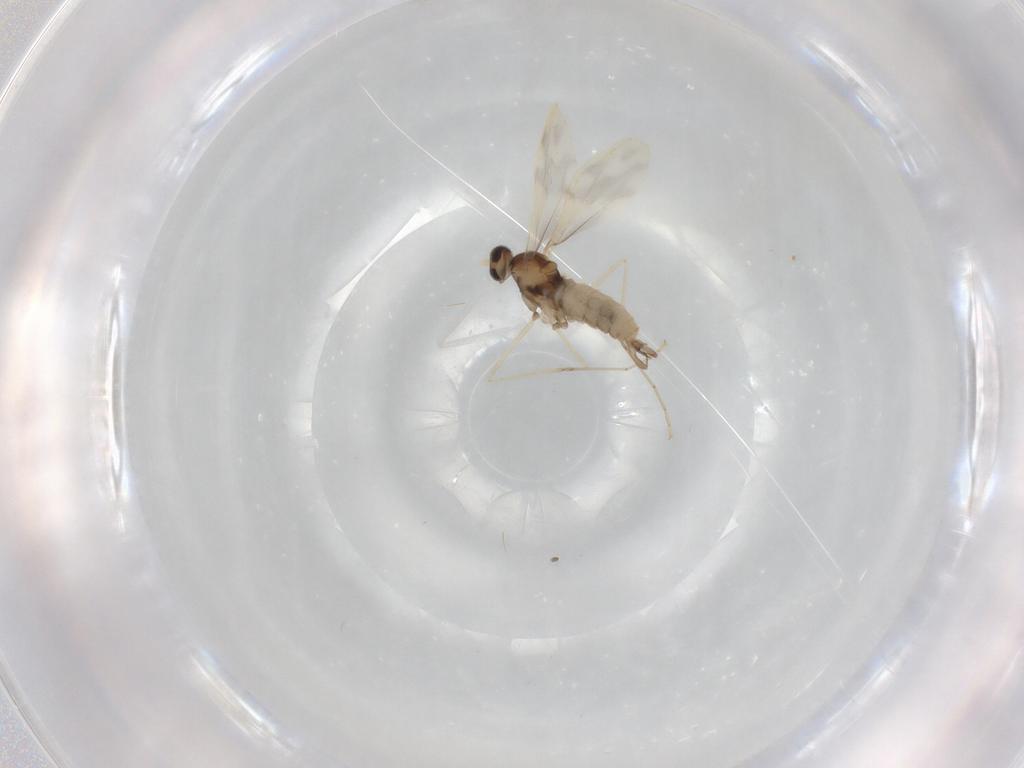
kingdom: Animalia
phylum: Arthropoda
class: Insecta
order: Diptera
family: Cecidomyiidae
